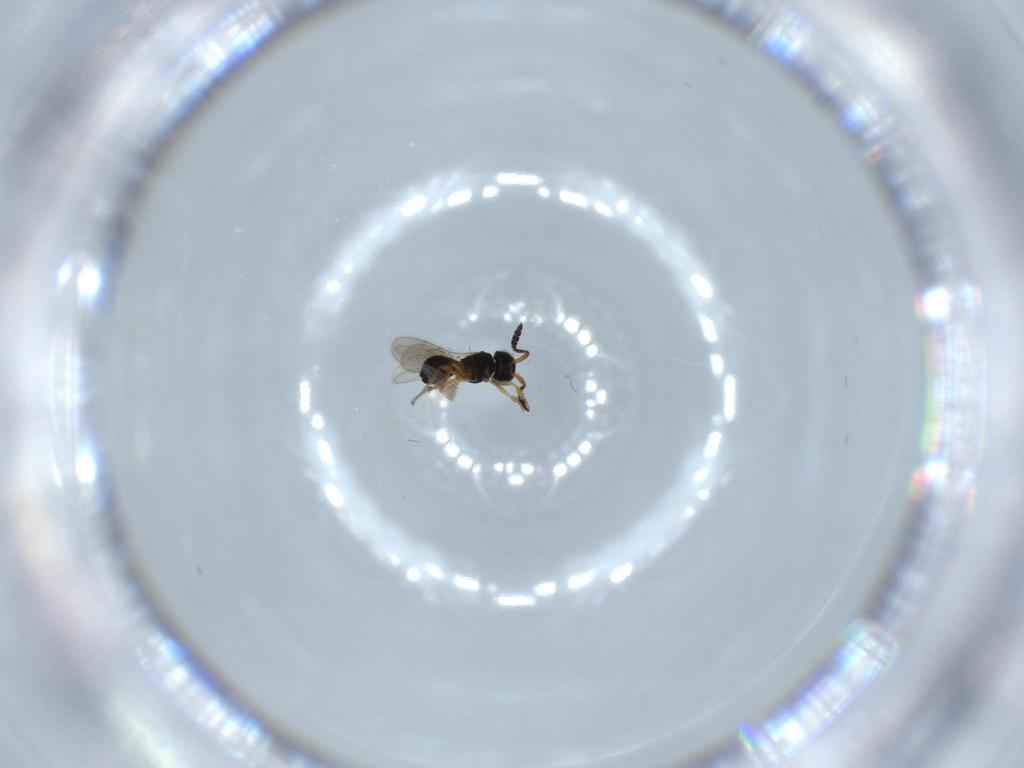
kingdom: Animalia
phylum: Arthropoda
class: Insecta
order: Hymenoptera
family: Scelionidae
